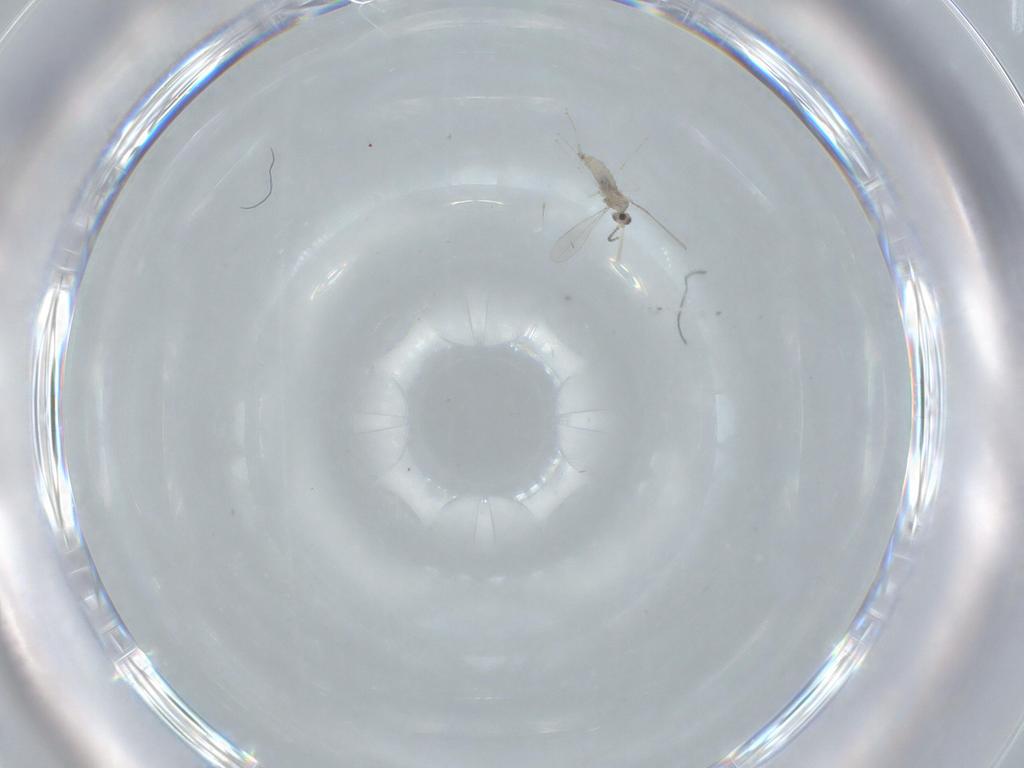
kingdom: Animalia
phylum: Arthropoda
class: Insecta
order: Diptera
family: Cecidomyiidae
